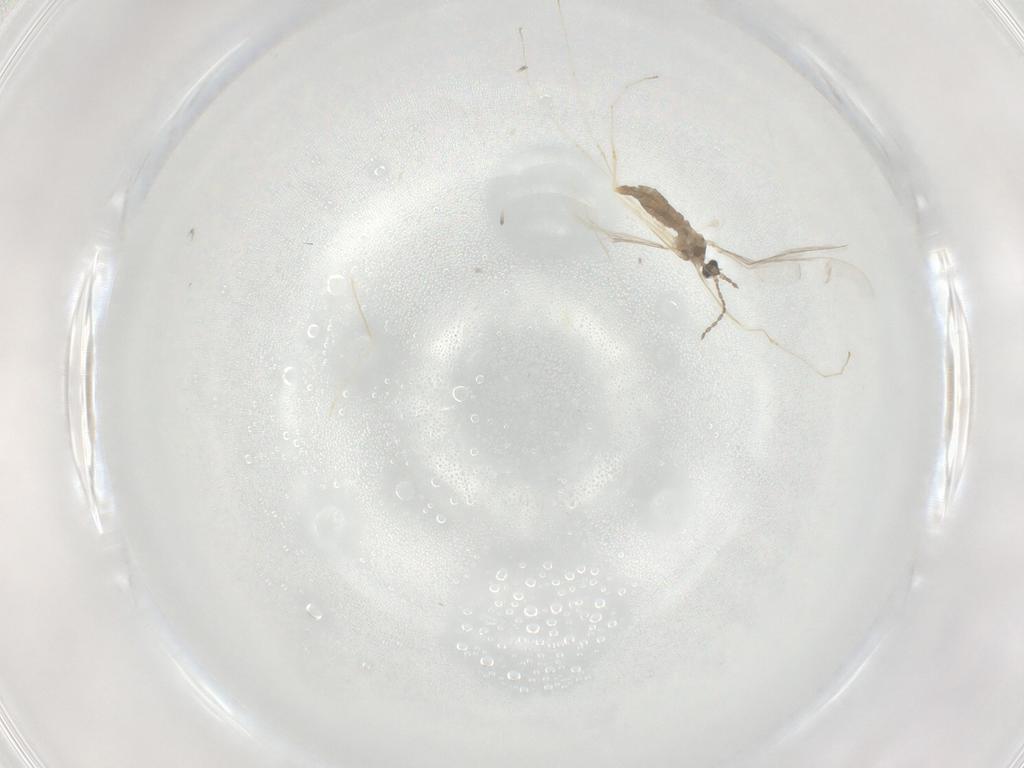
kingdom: Animalia
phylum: Arthropoda
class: Insecta
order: Diptera
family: Cecidomyiidae
